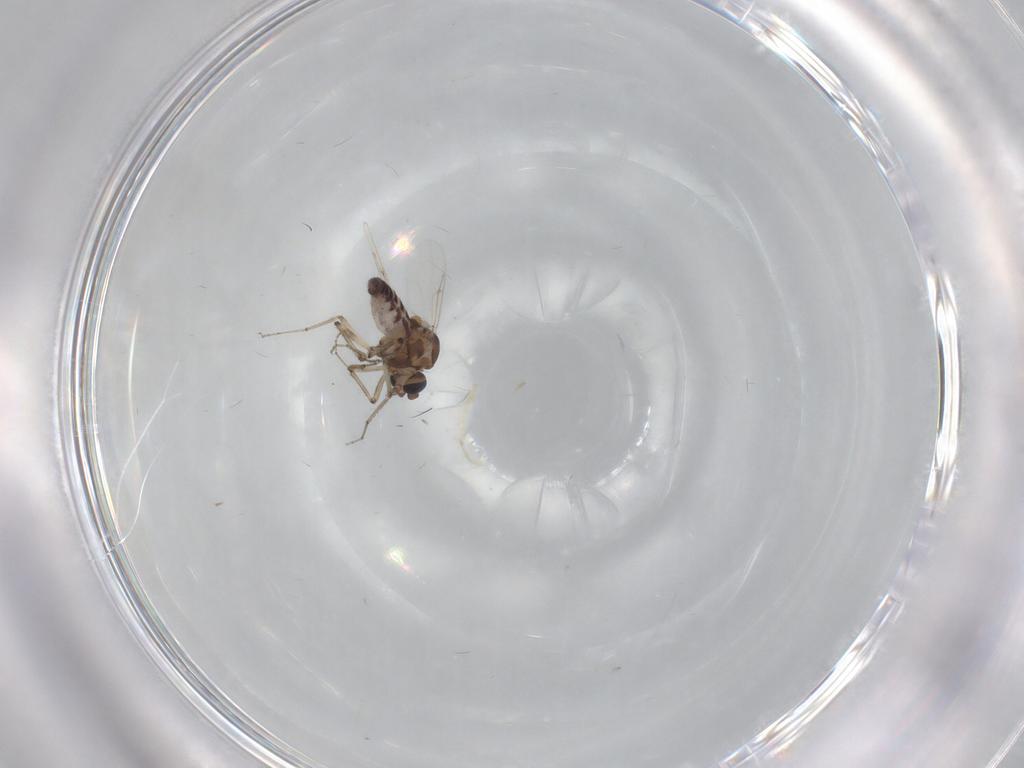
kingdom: Animalia
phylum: Arthropoda
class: Insecta
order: Diptera
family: Ceratopogonidae
